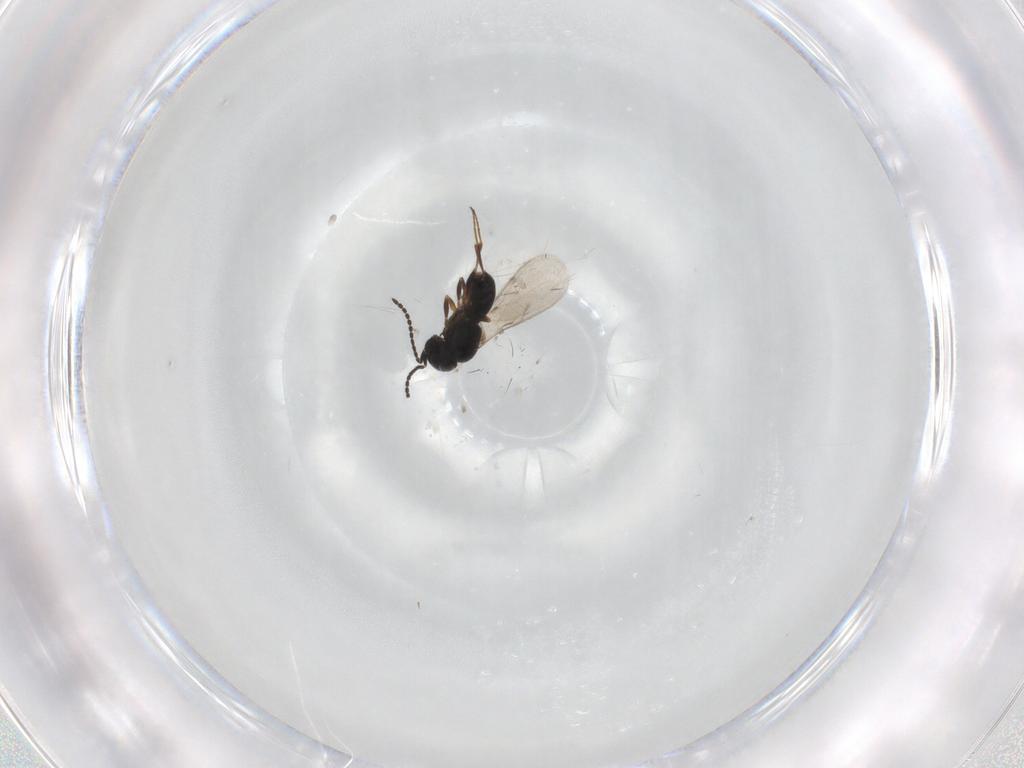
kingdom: Animalia
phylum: Arthropoda
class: Insecta
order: Hymenoptera
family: Scelionidae
